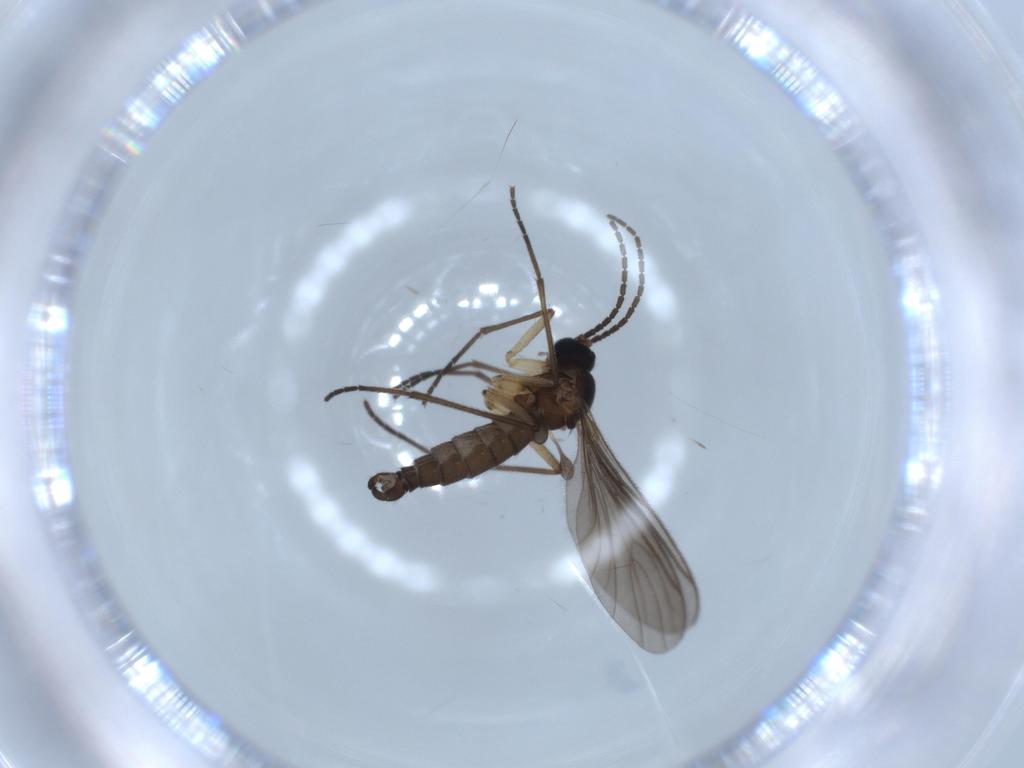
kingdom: Animalia
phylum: Arthropoda
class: Insecta
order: Diptera
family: Sciaridae
